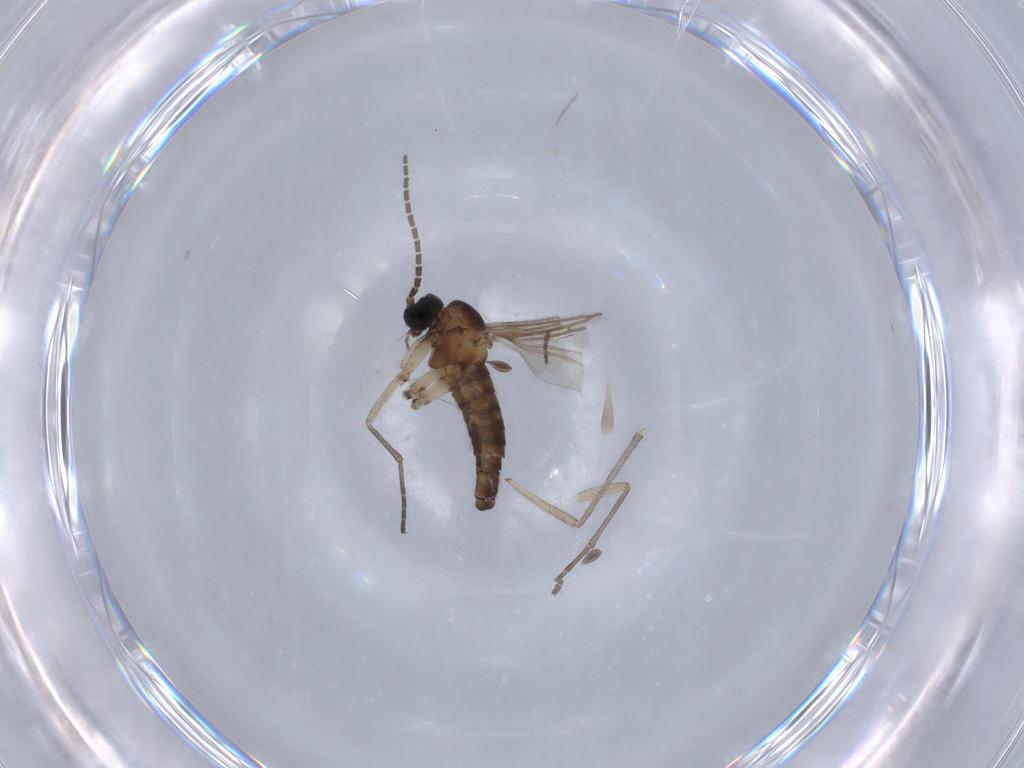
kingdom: Animalia
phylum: Arthropoda
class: Insecta
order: Diptera
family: Sciaridae
